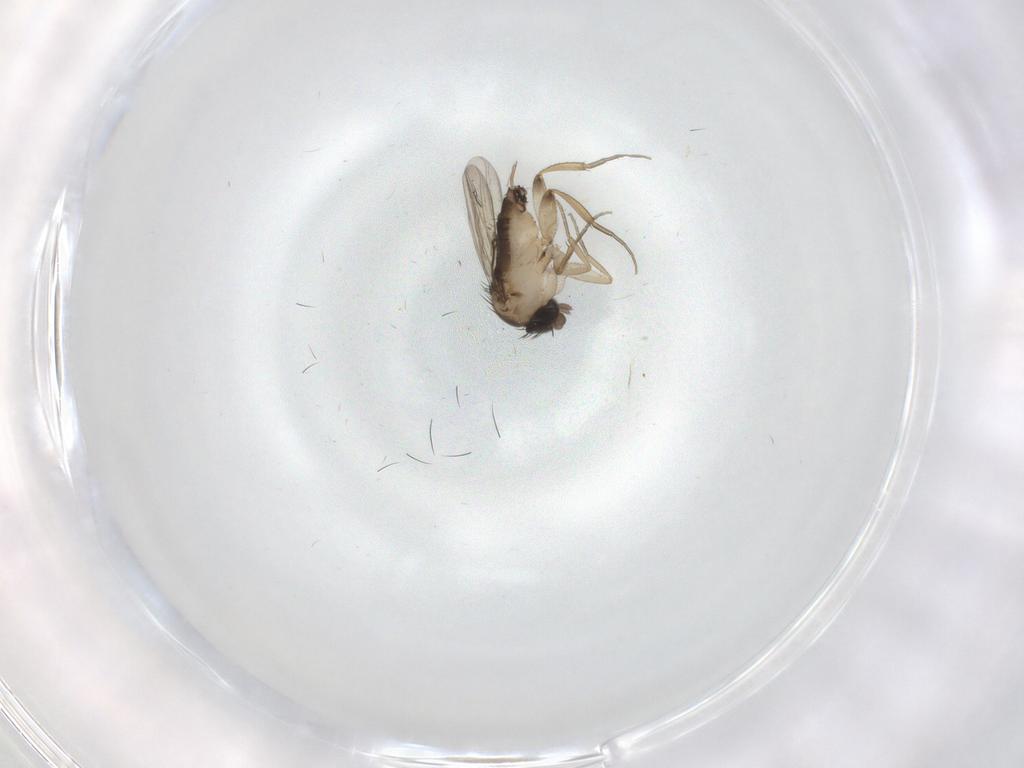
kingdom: Animalia
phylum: Arthropoda
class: Insecta
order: Diptera
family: Phoridae
